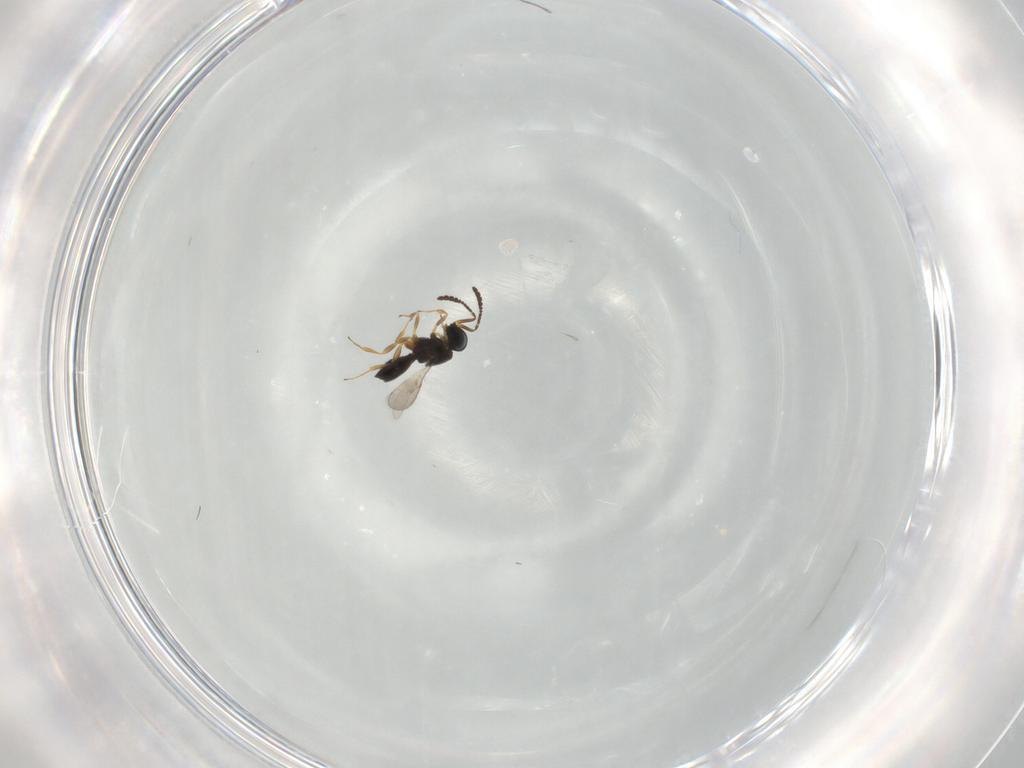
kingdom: Animalia
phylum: Arthropoda
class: Insecta
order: Hymenoptera
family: Scelionidae
